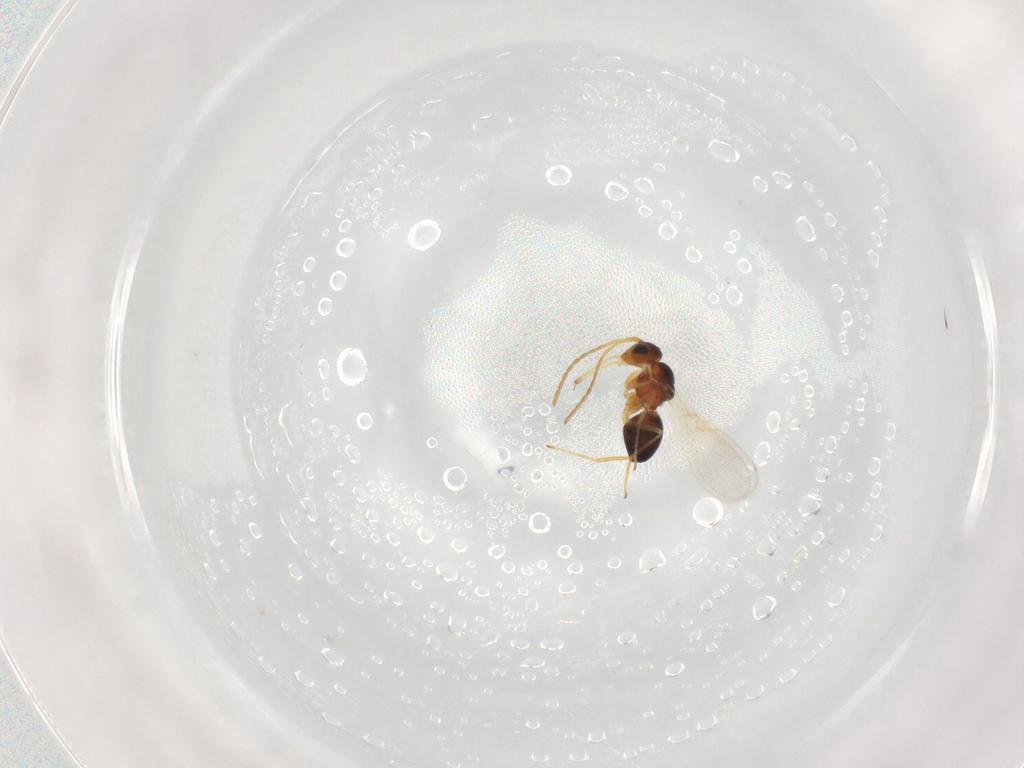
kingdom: Animalia
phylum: Arthropoda
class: Insecta
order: Hymenoptera
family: Figitidae
